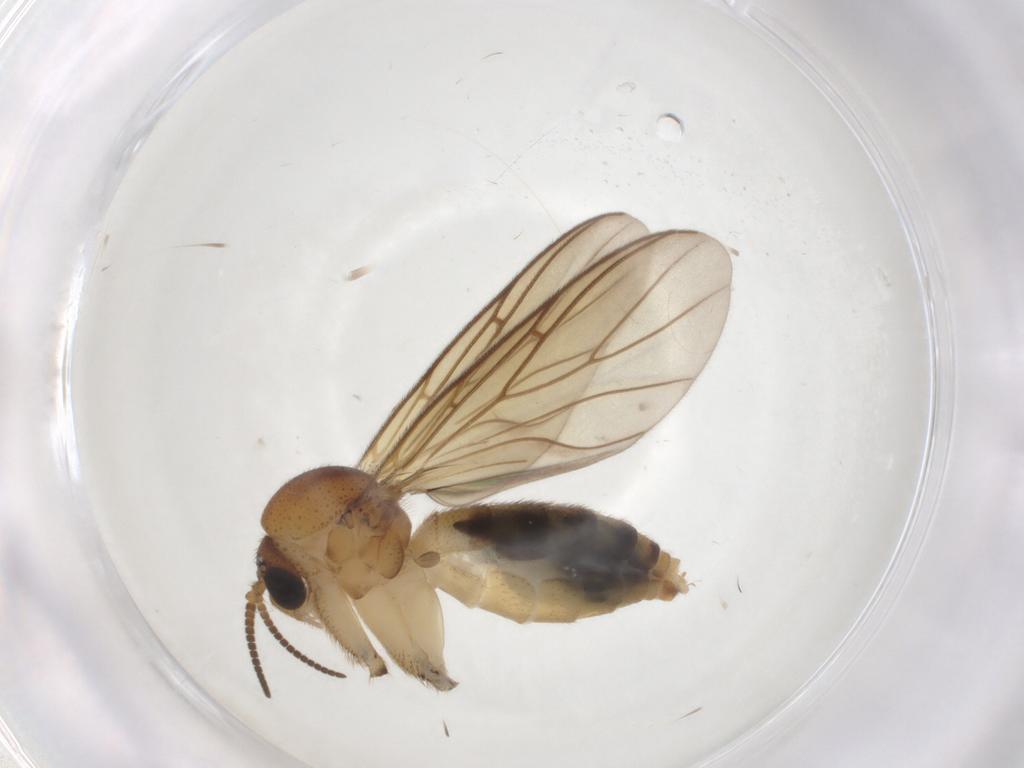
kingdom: Animalia
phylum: Arthropoda
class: Insecta
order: Diptera
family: Sciaridae
